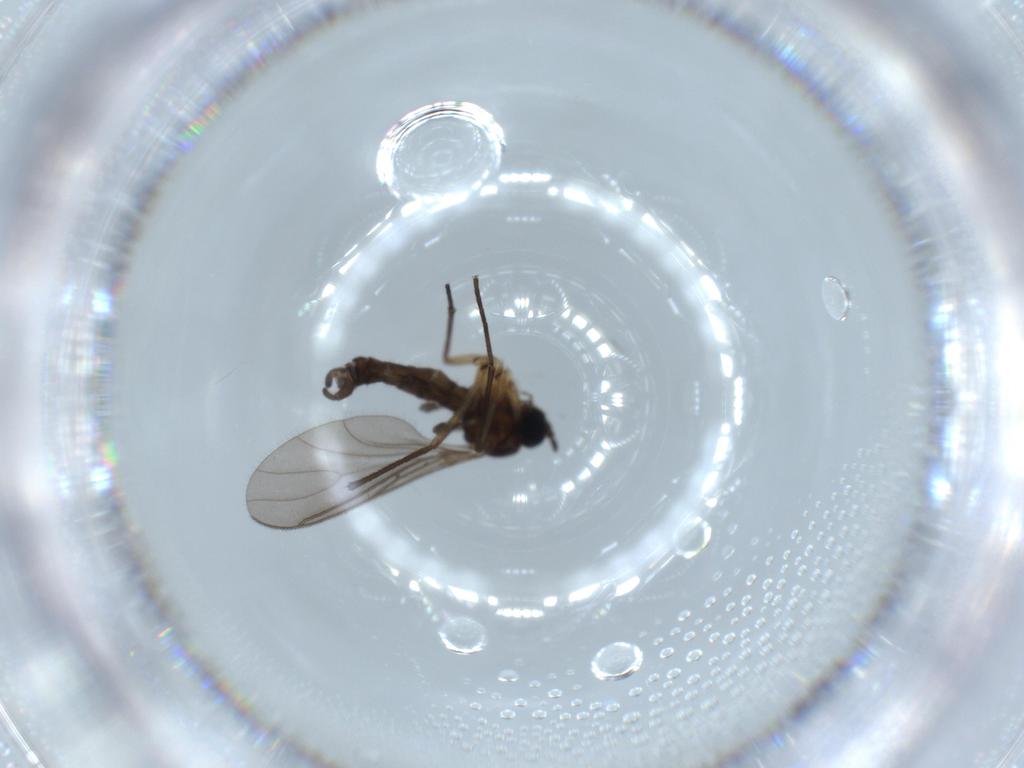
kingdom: Animalia
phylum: Arthropoda
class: Insecta
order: Diptera
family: Sciaridae
